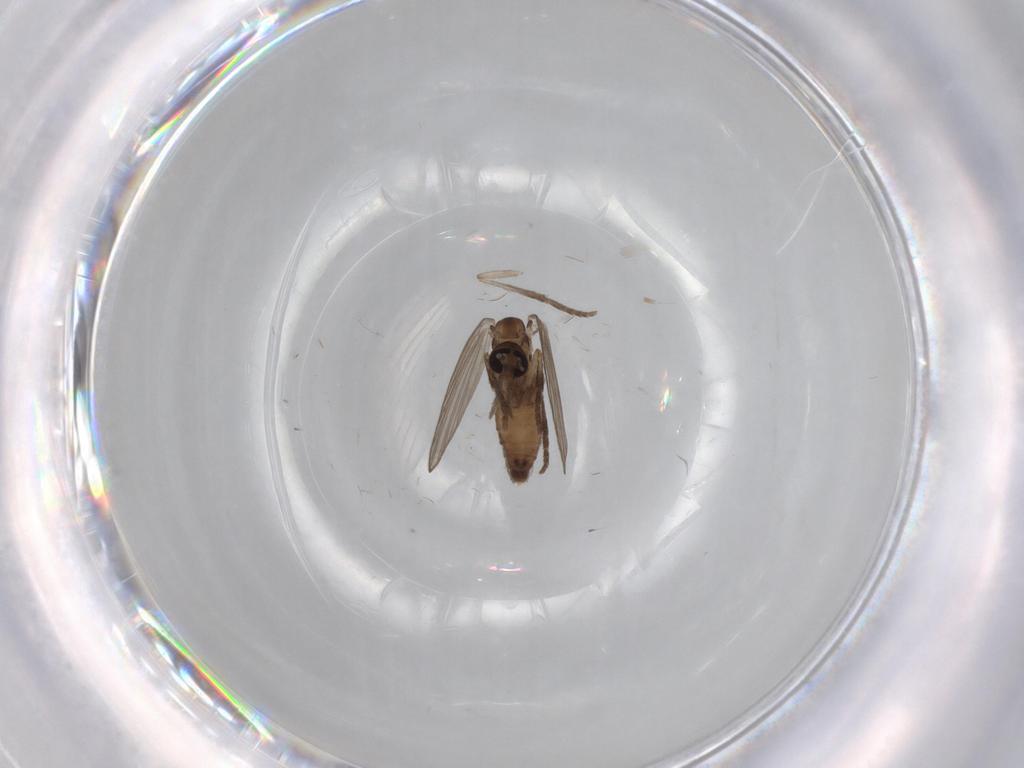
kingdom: Animalia
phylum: Arthropoda
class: Insecta
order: Diptera
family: Psychodidae
